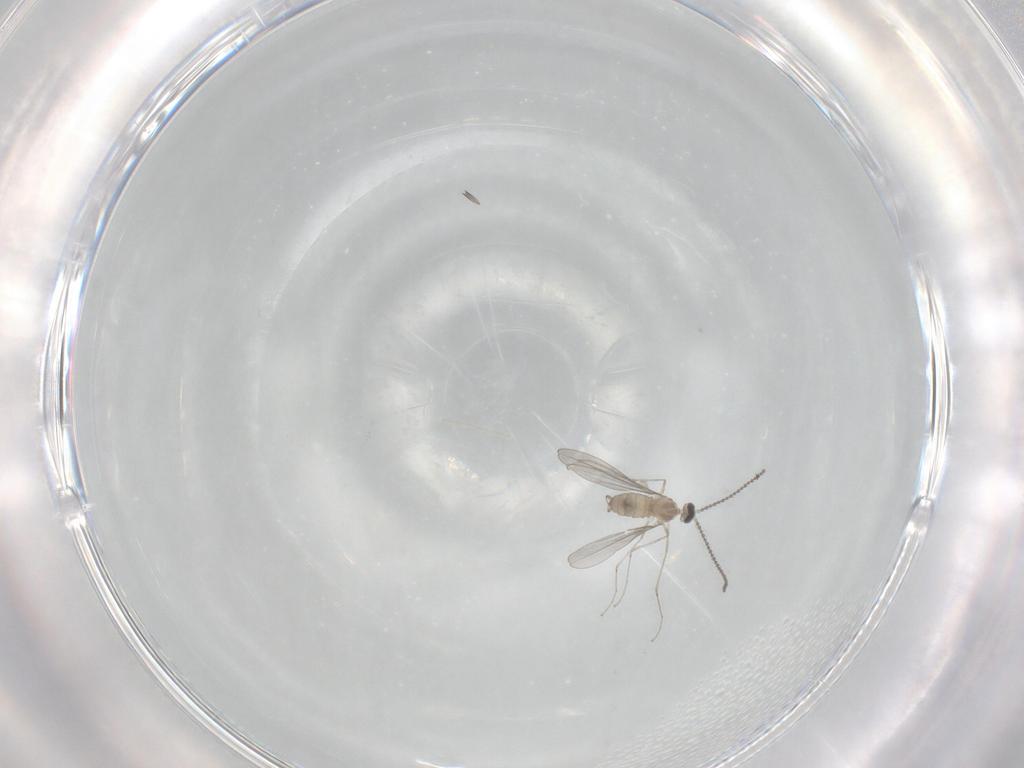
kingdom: Animalia
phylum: Arthropoda
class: Insecta
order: Diptera
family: Cecidomyiidae
